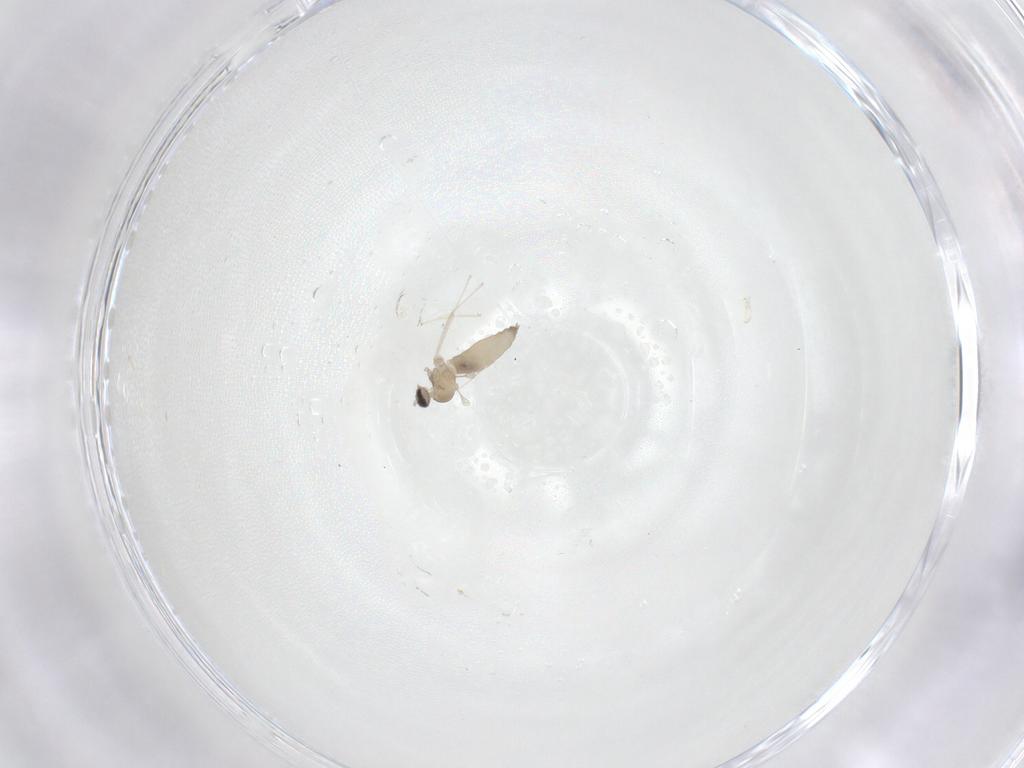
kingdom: Animalia
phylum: Arthropoda
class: Insecta
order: Diptera
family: Cecidomyiidae
